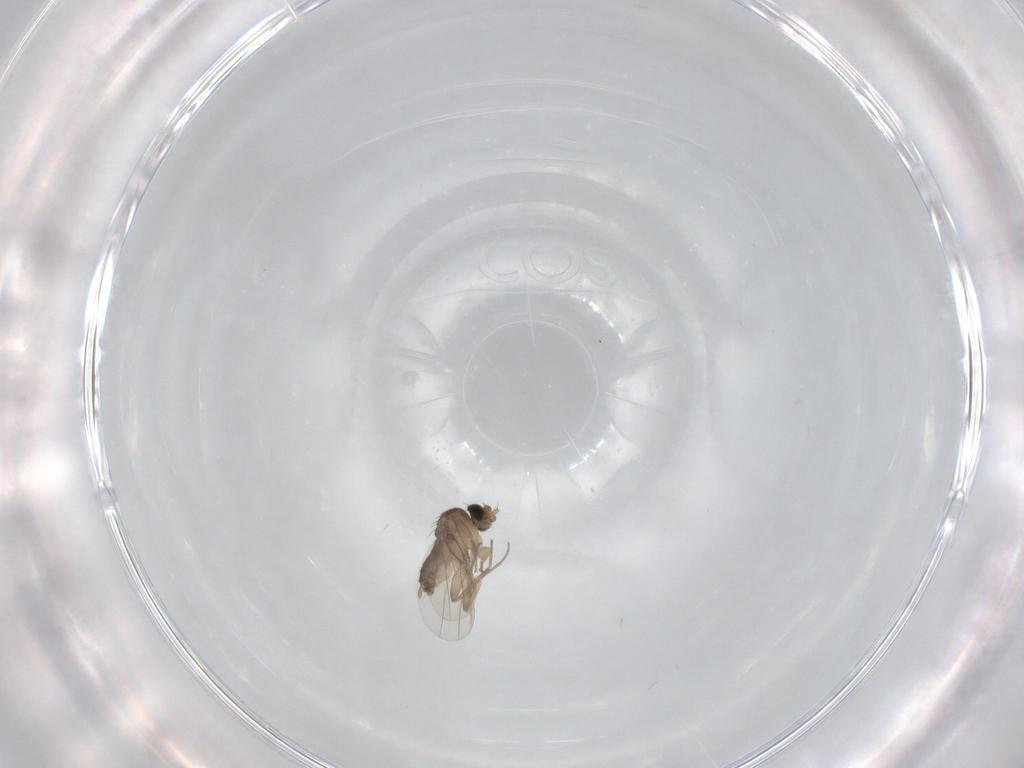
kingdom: Animalia
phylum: Arthropoda
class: Insecta
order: Diptera
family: Phoridae
